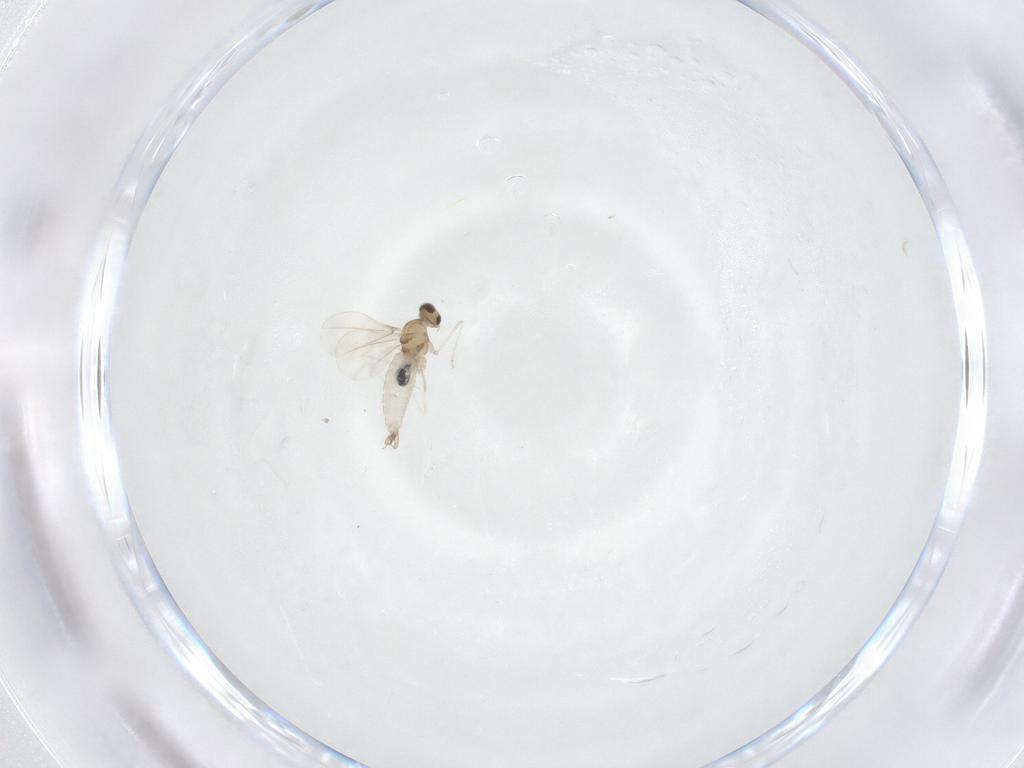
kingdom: Animalia
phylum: Arthropoda
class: Insecta
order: Diptera
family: Cecidomyiidae
